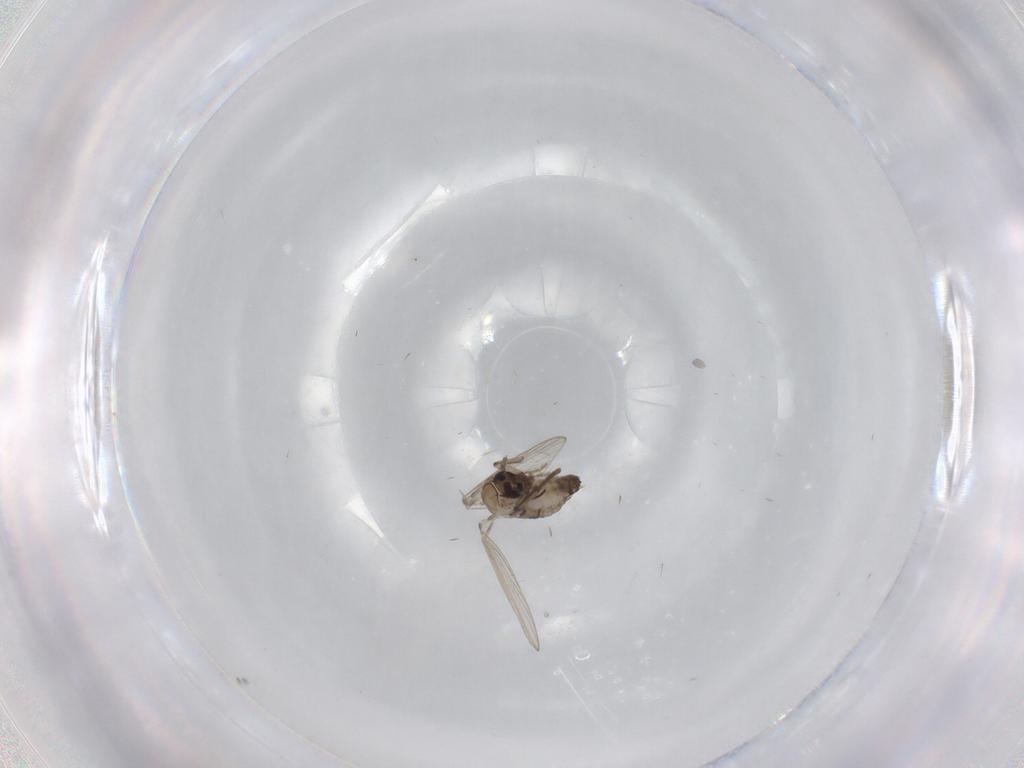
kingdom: Animalia
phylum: Arthropoda
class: Insecta
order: Diptera
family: Psychodidae
